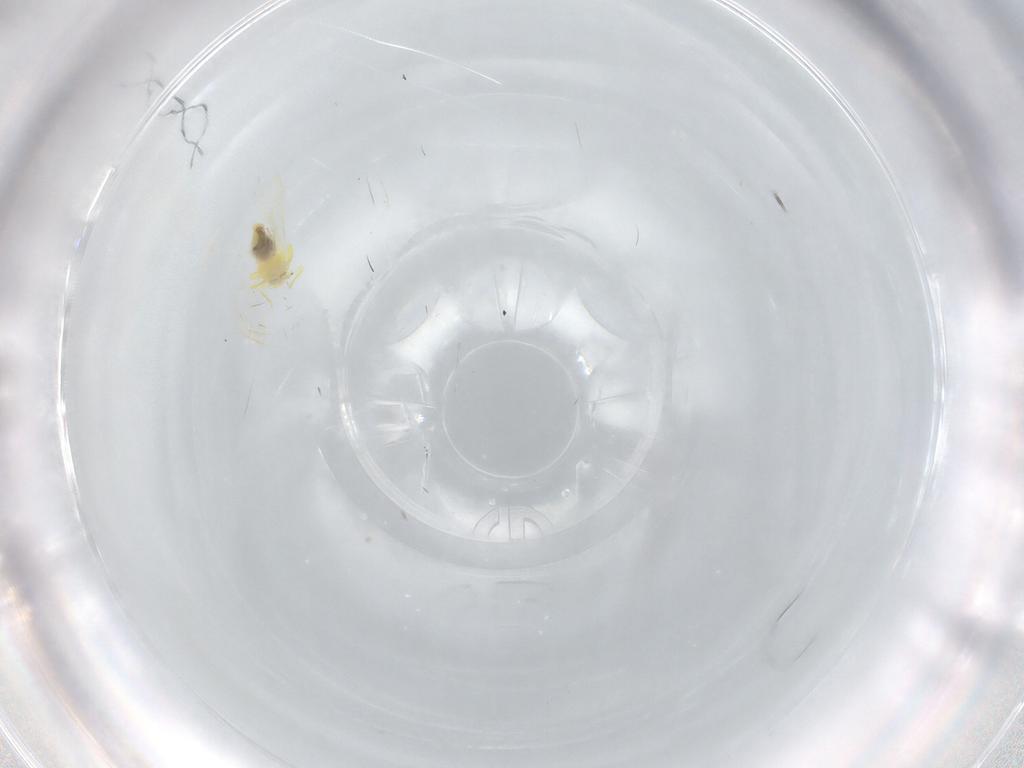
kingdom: Animalia
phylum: Arthropoda
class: Insecta
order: Hemiptera
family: Aleyrodidae
